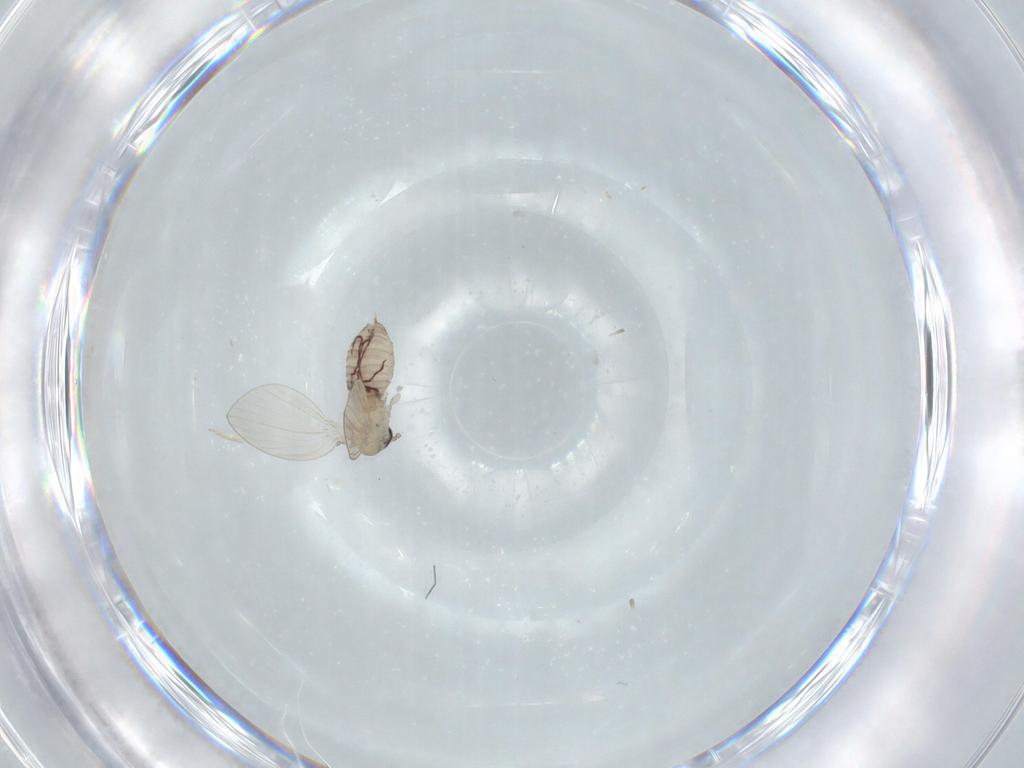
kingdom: Animalia
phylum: Arthropoda
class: Insecta
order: Diptera
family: Psychodidae
